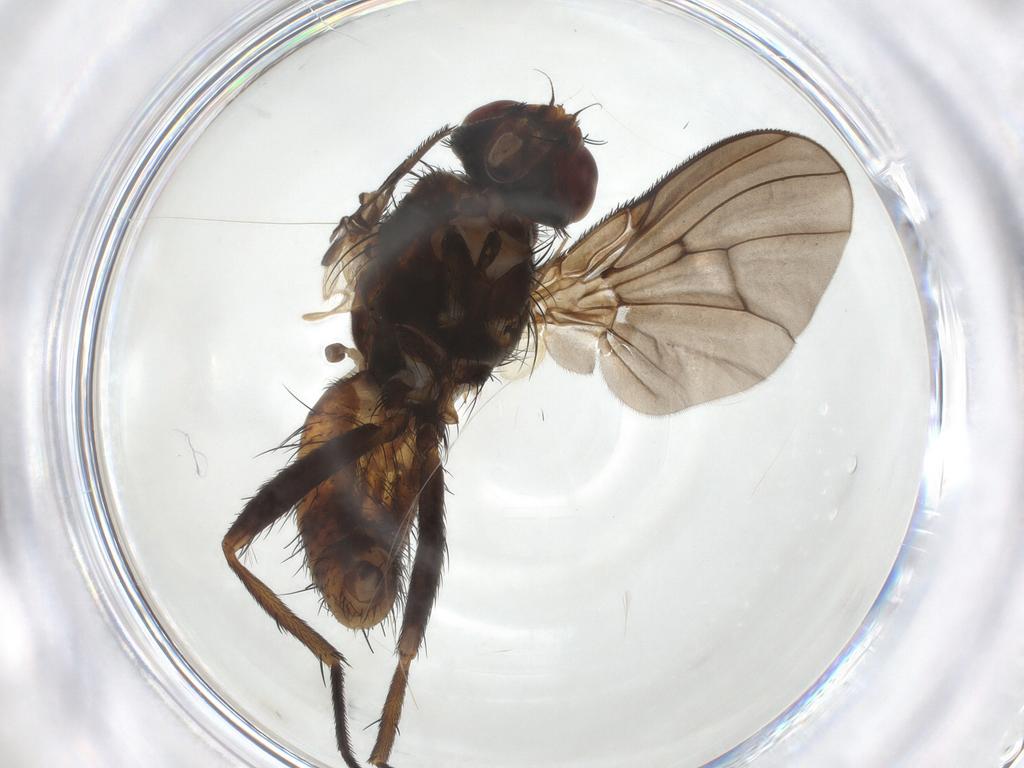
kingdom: Animalia
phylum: Arthropoda
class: Insecta
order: Diptera
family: Muscidae
